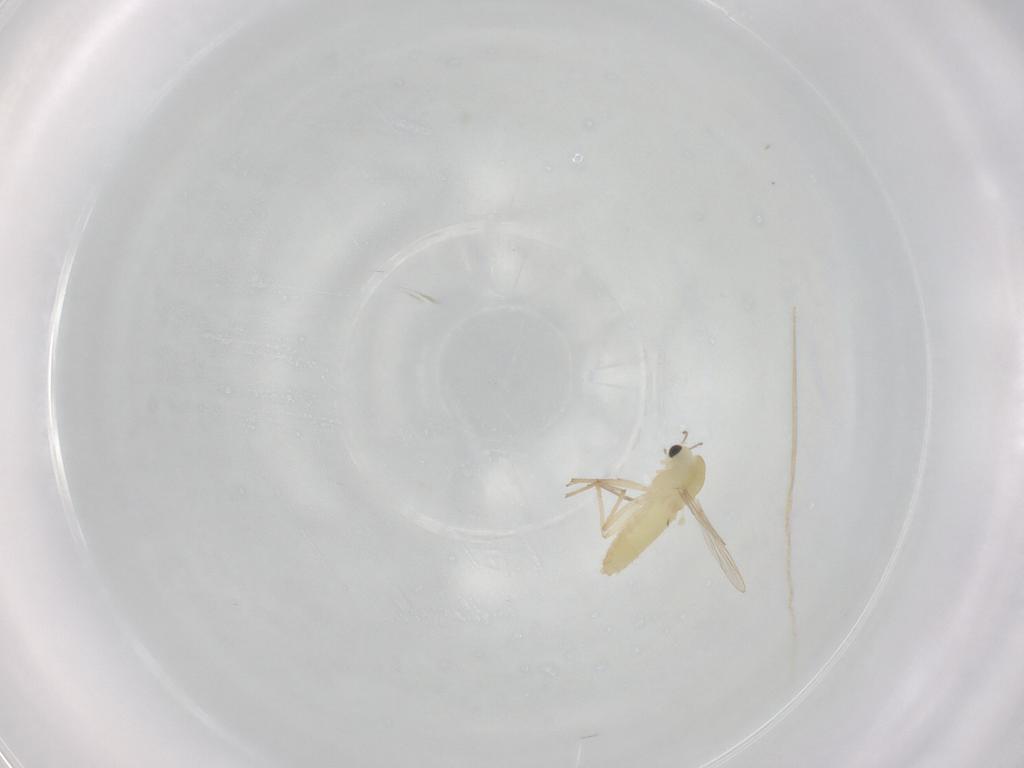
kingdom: Animalia
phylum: Arthropoda
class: Insecta
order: Diptera
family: Chironomidae
